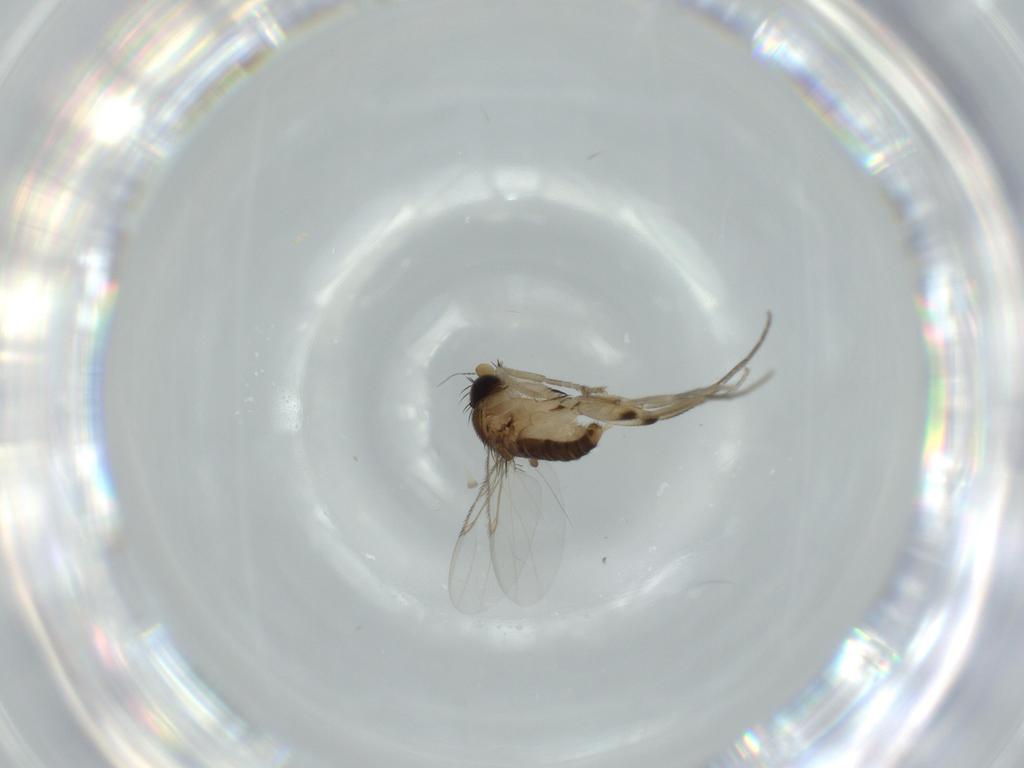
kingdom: Animalia
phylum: Arthropoda
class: Insecta
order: Diptera
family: Phoridae
